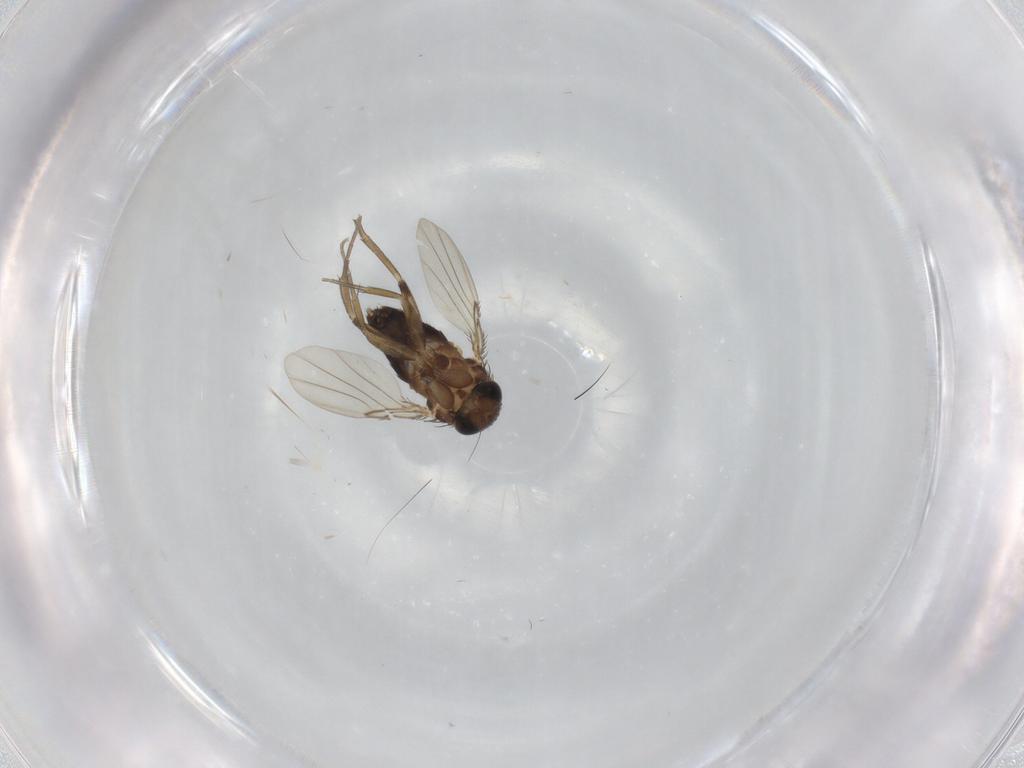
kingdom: Animalia
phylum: Arthropoda
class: Insecta
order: Diptera
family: Phoridae
